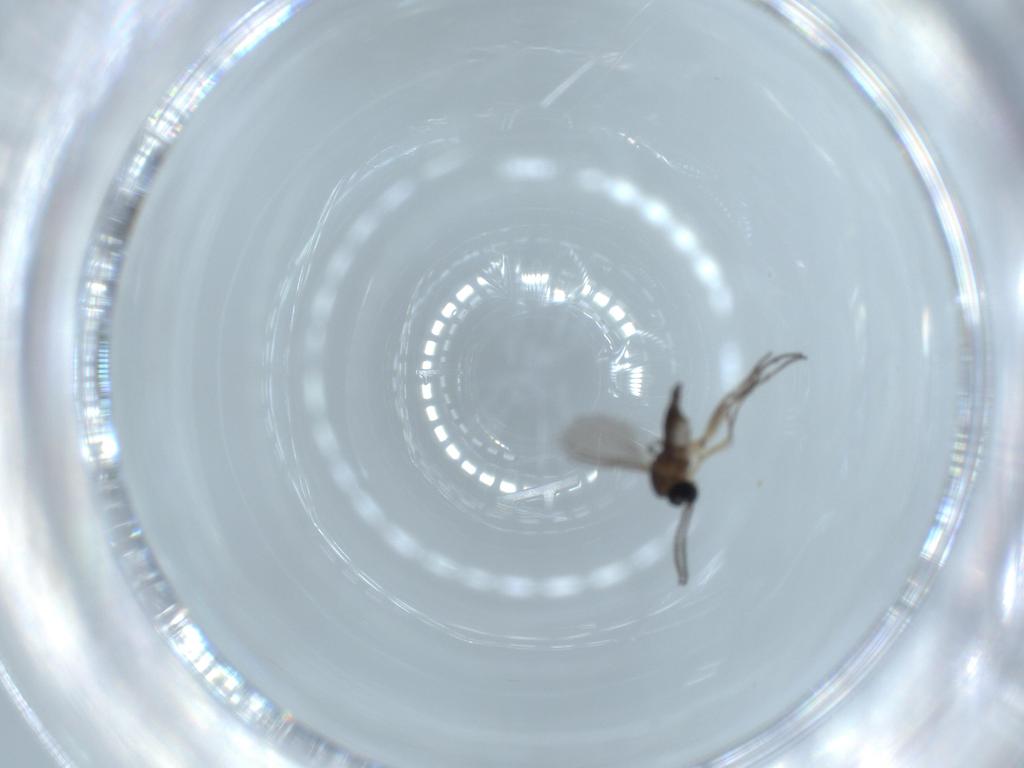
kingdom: Animalia
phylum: Arthropoda
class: Insecta
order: Diptera
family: Sciaridae
